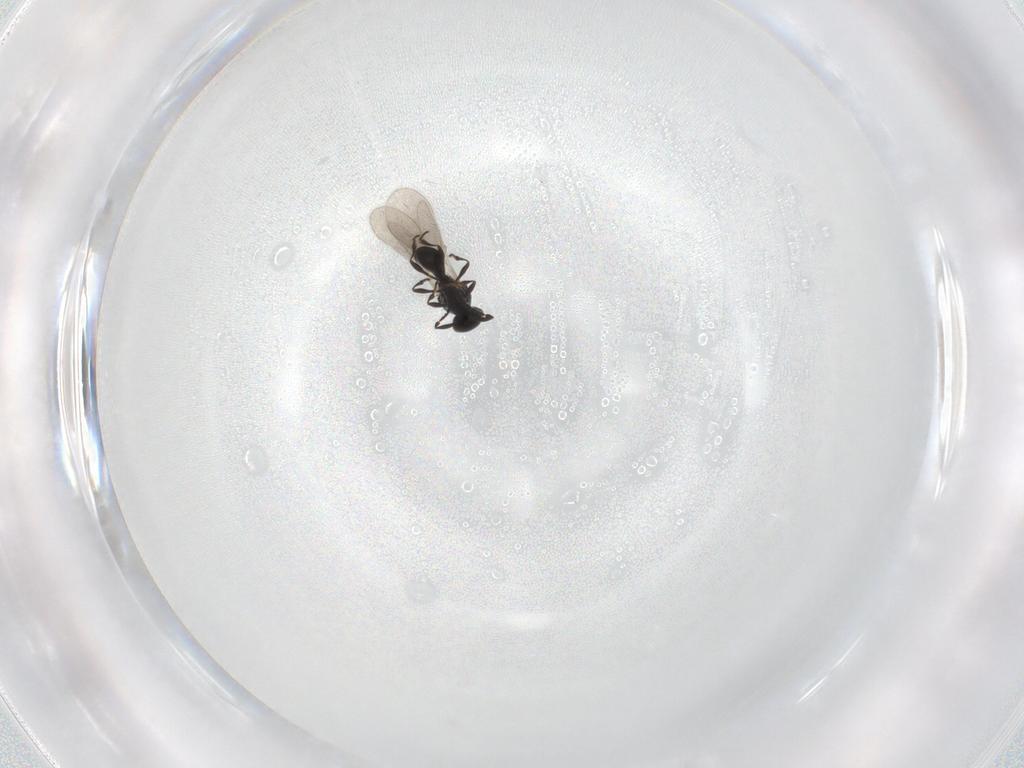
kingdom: Animalia
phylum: Arthropoda
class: Insecta
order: Hymenoptera
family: Platygastridae
